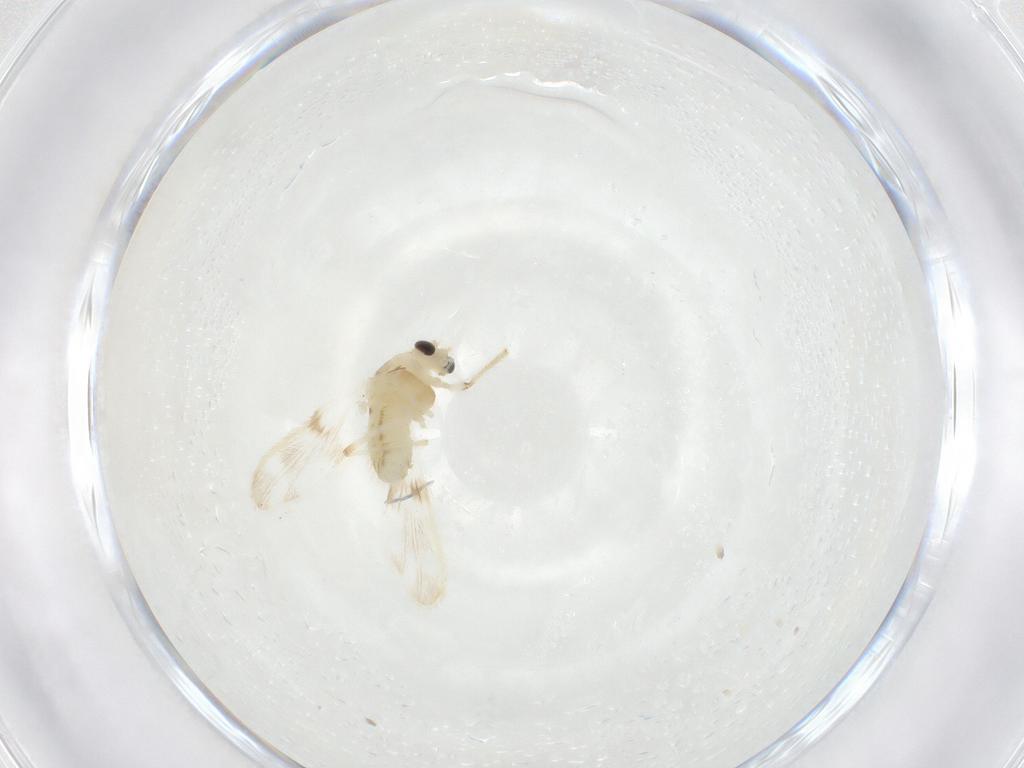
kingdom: Animalia
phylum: Arthropoda
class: Insecta
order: Diptera
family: Chironomidae
